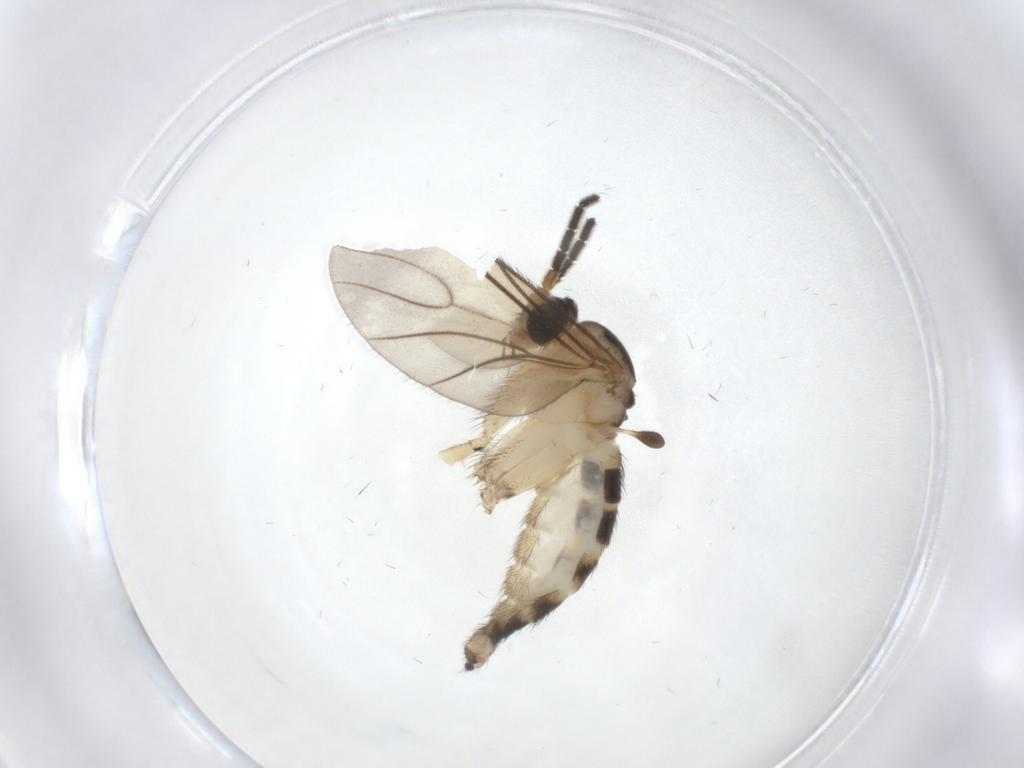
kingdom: Animalia
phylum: Arthropoda
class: Insecta
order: Diptera
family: Sciaridae
